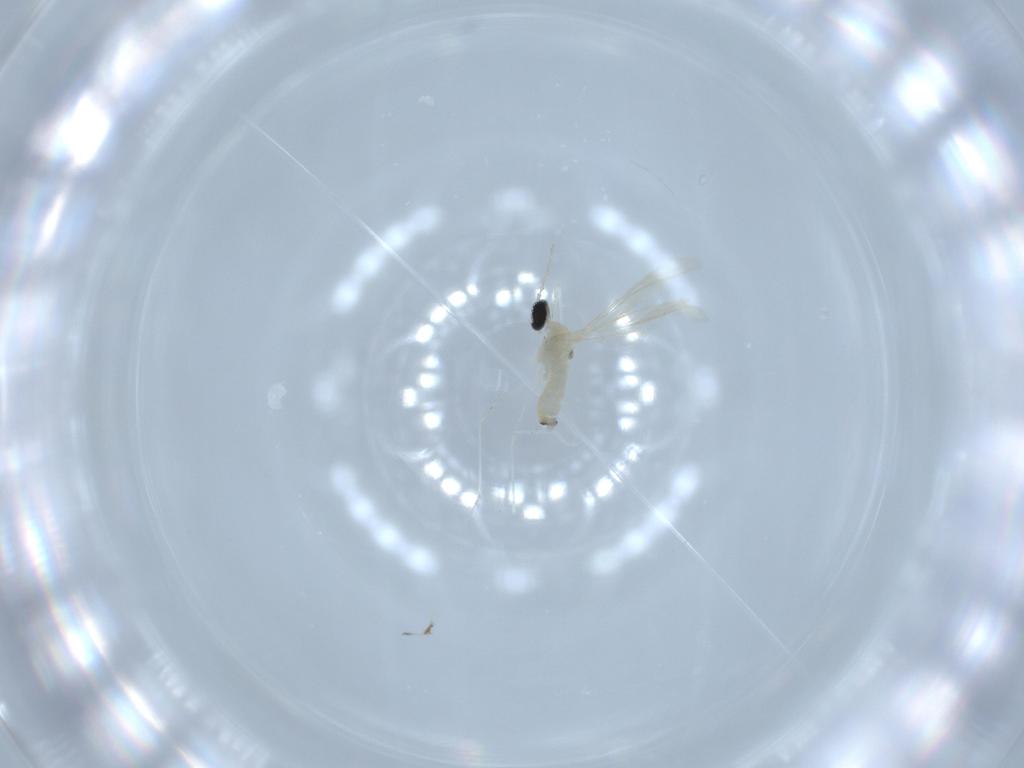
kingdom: Animalia
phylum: Arthropoda
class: Insecta
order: Diptera
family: Cecidomyiidae
